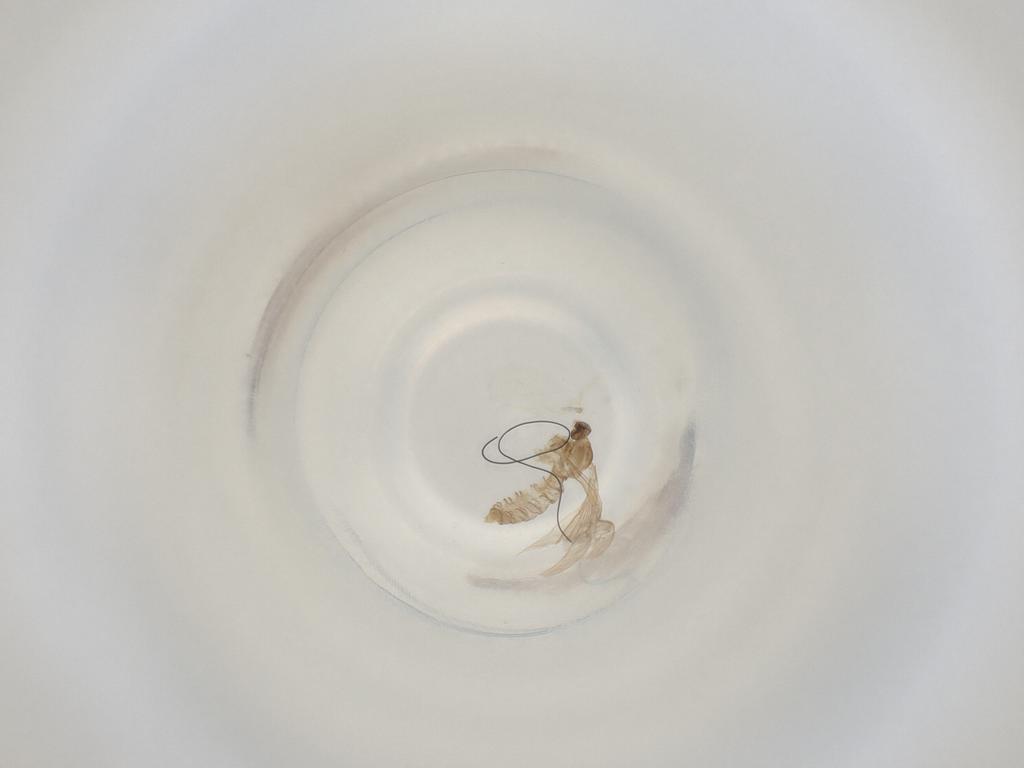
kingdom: Animalia
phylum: Arthropoda
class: Insecta
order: Diptera
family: Cecidomyiidae
